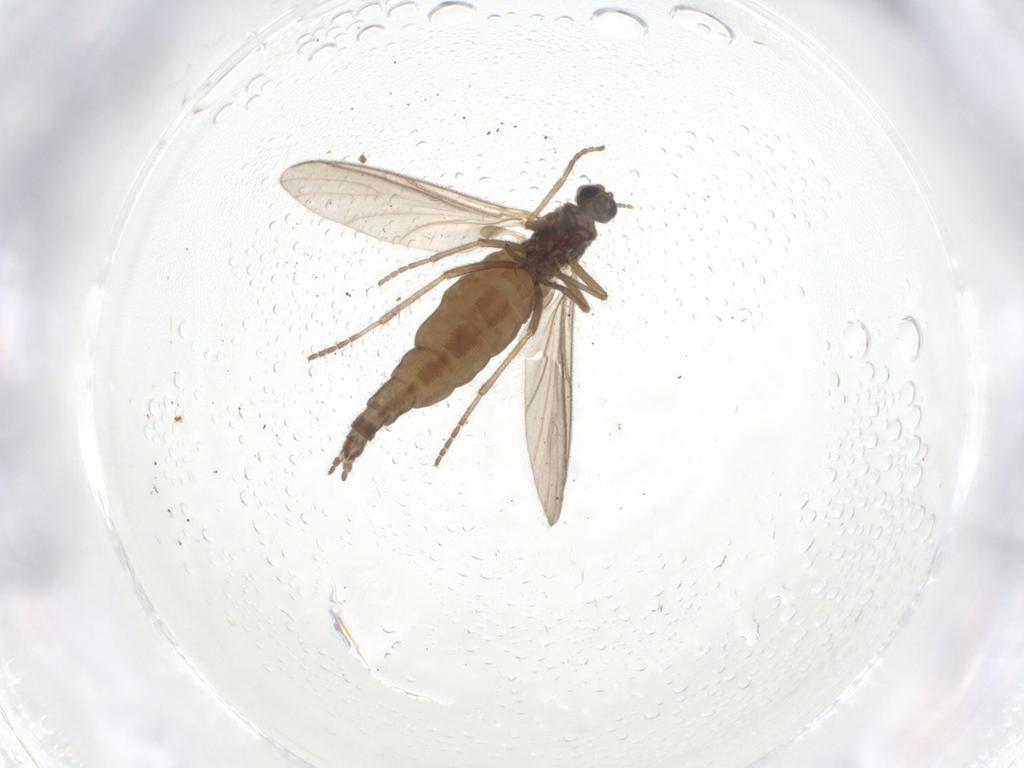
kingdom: Animalia
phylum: Arthropoda
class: Insecta
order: Diptera
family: Sciaridae
